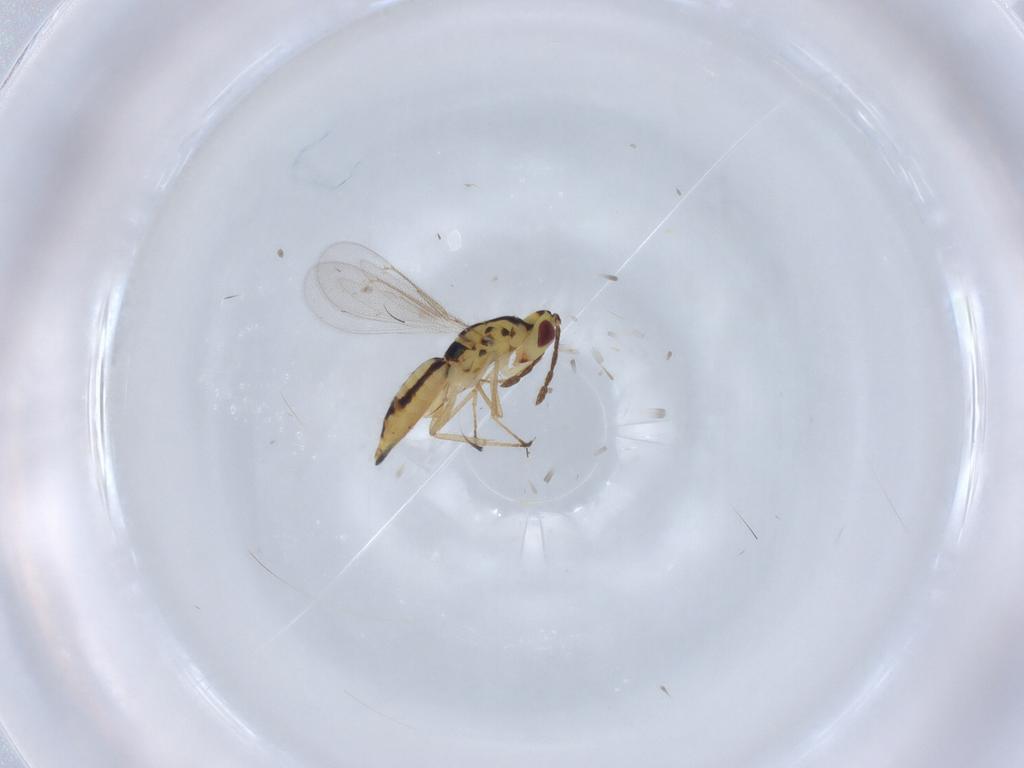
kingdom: Animalia
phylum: Arthropoda
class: Insecta
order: Hymenoptera
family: Eulophidae
